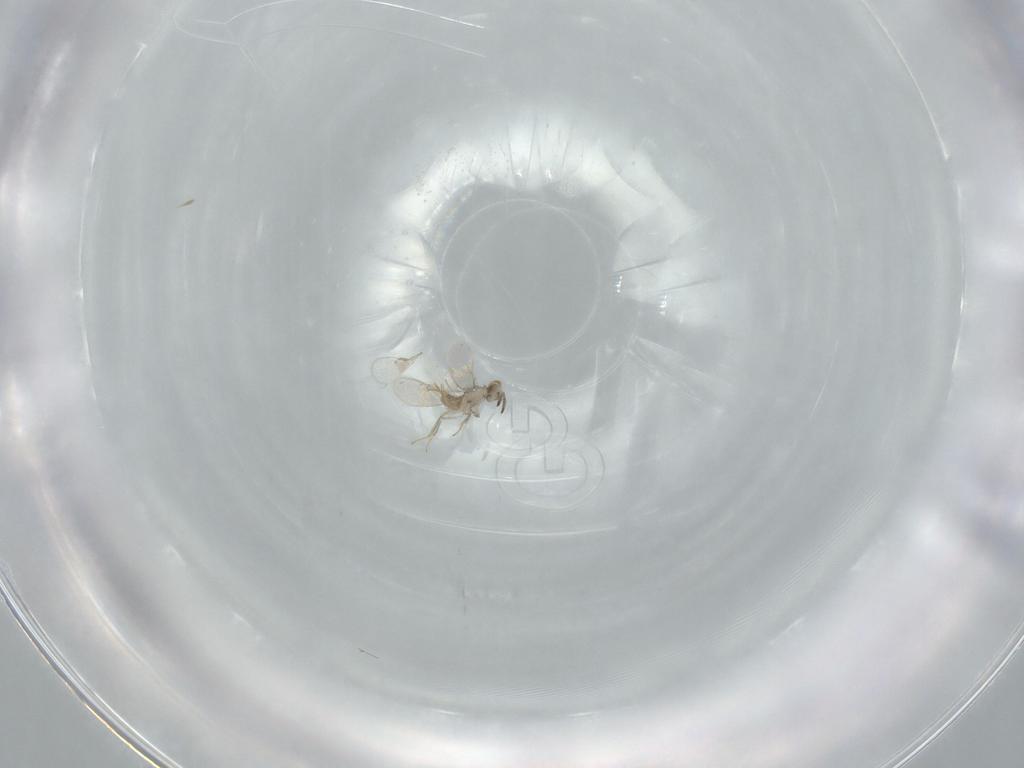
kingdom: Animalia
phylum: Arthropoda
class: Insecta
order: Hymenoptera
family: Aphelinidae
